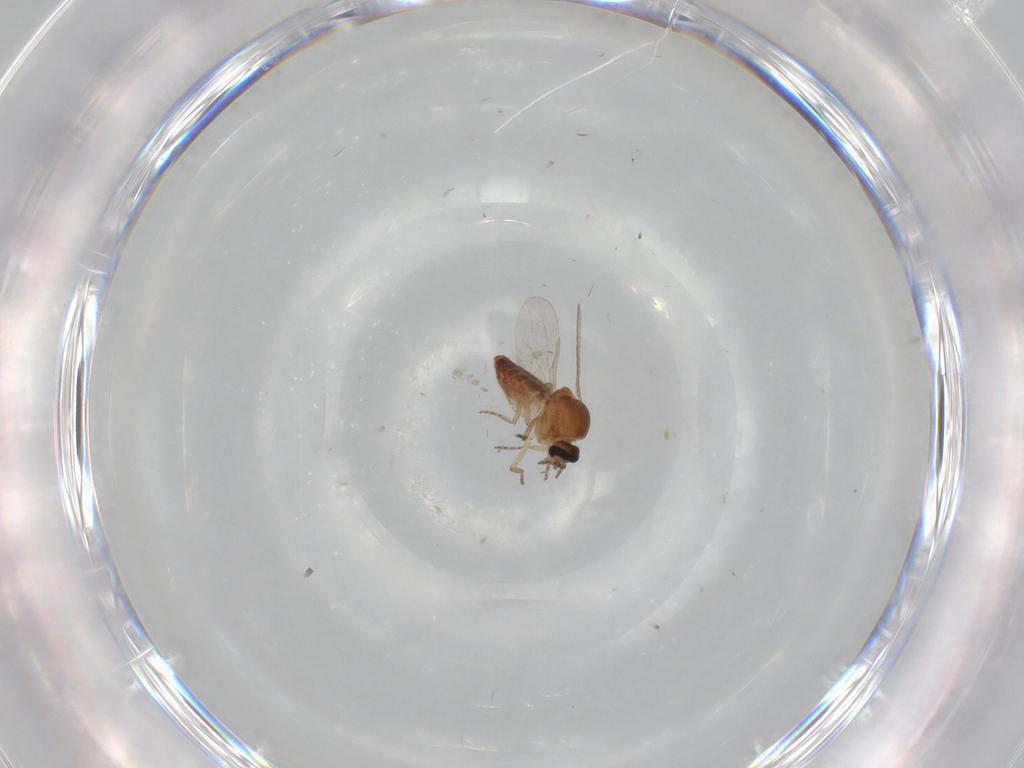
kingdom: Animalia
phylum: Arthropoda
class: Insecta
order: Diptera
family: Ceratopogonidae
